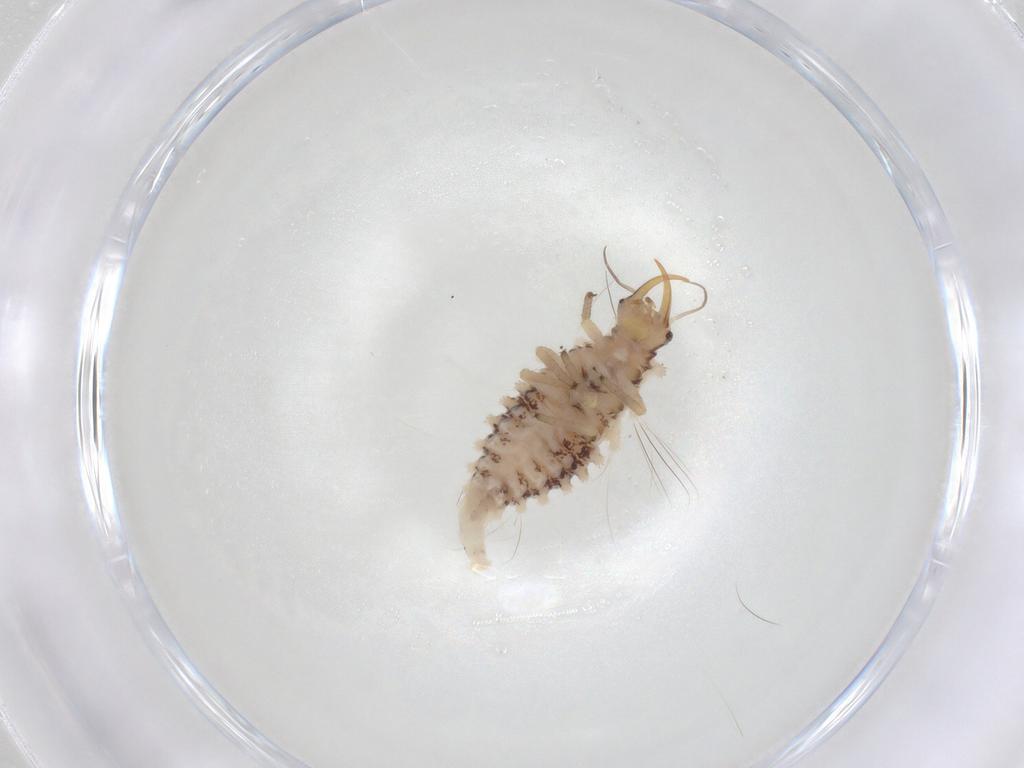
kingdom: Animalia
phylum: Arthropoda
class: Insecta
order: Neuroptera
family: Chrysopidae
